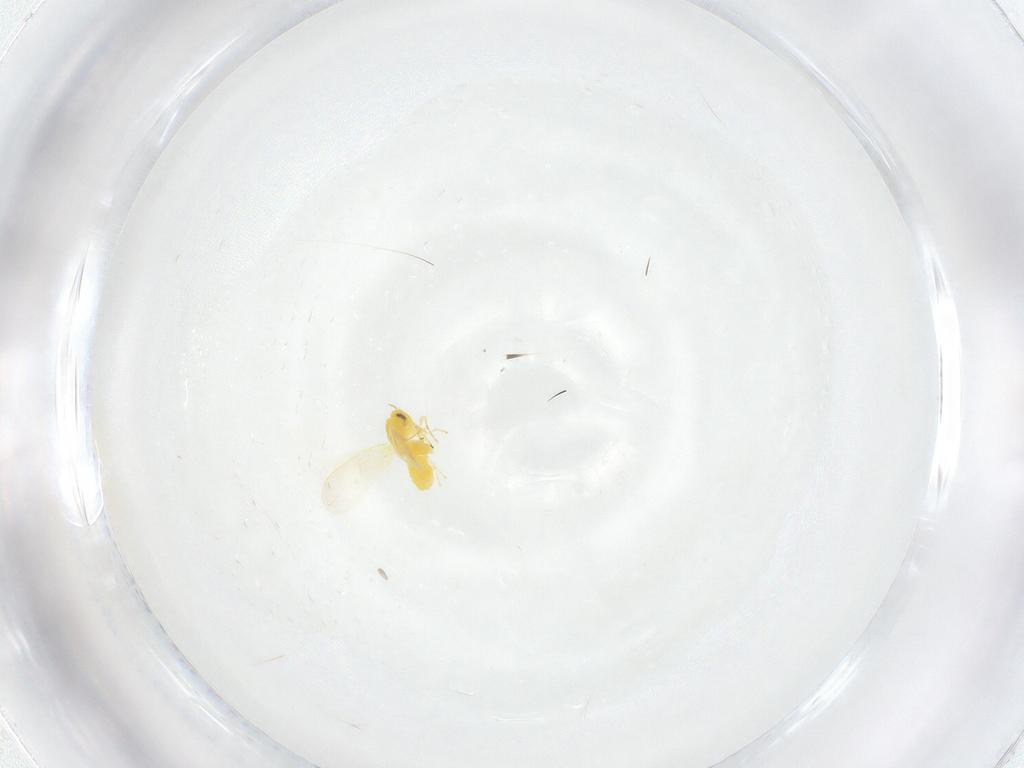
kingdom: Animalia
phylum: Arthropoda
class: Insecta
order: Hemiptera
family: Aleyrodidae
